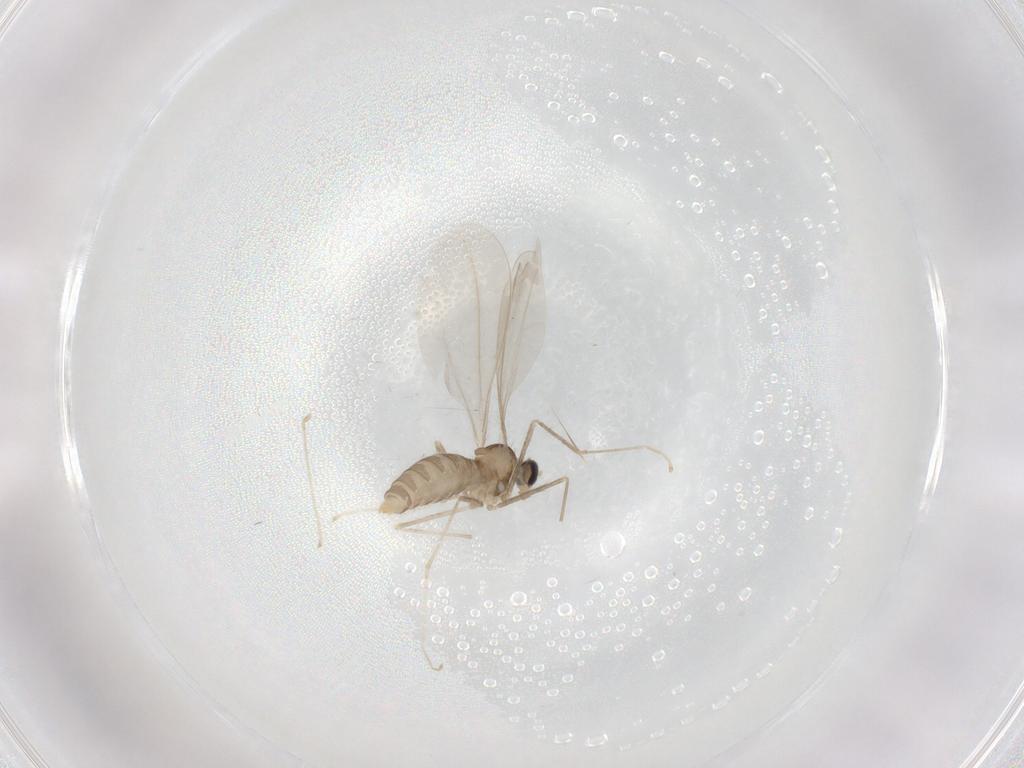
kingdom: Animalia
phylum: Arthropoda
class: Insecta
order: Diptera
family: Cecidomyiidae
